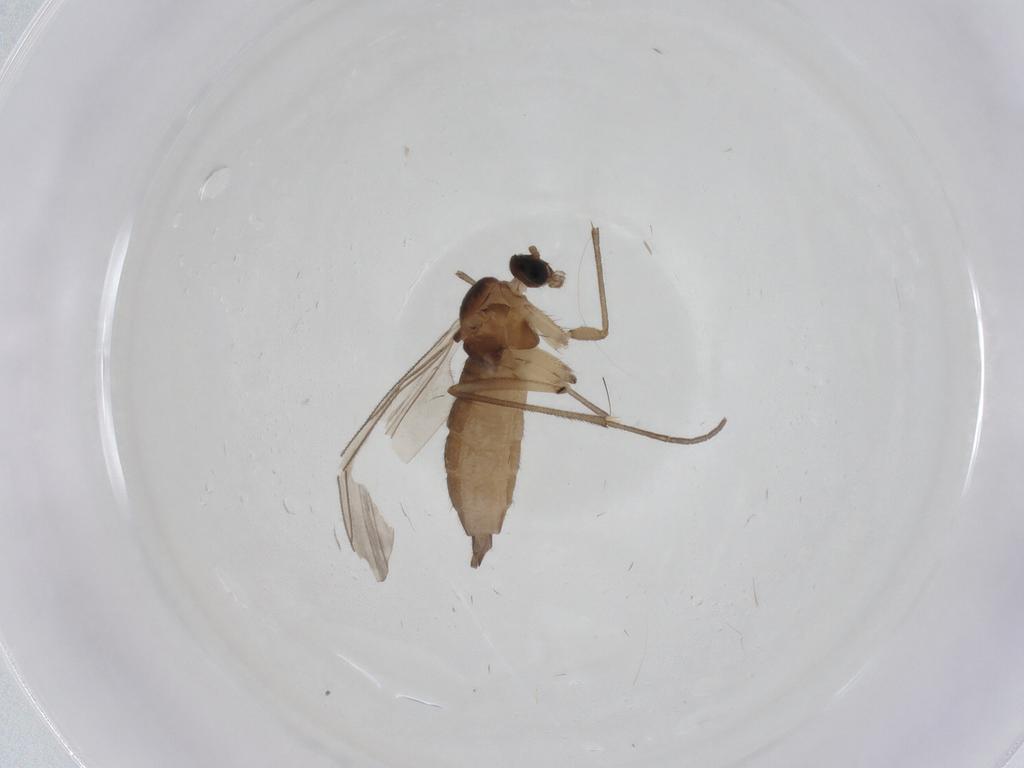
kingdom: Animalia
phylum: Arthropoda
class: Insecta
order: Diptera
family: Sciaridae
